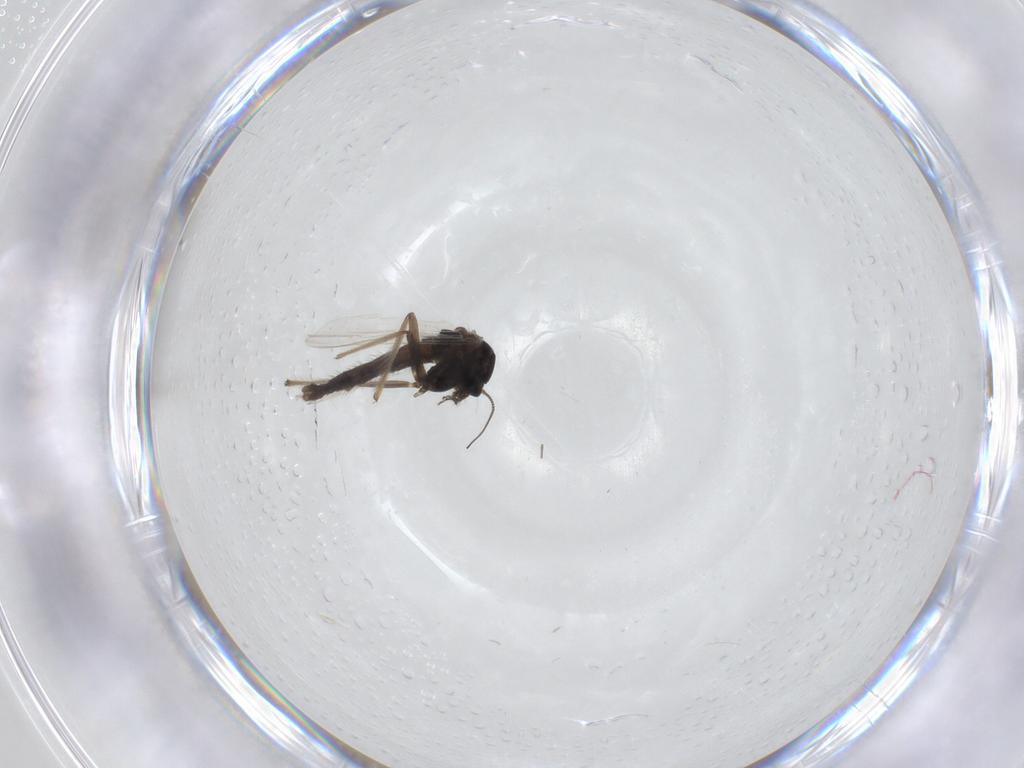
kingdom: Animalia
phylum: Arthropoda
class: Insecta
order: Diptera
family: Chironomidae
